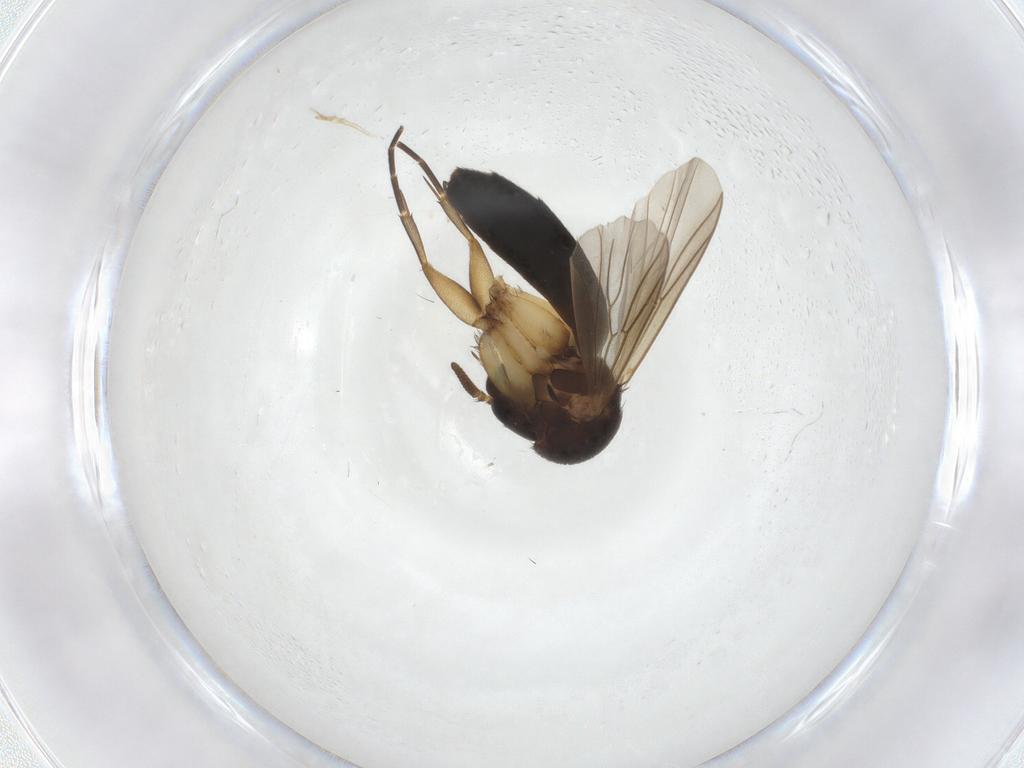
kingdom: Animalia
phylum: Arthropoda
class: Insecta
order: Diptera
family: Mycetophilidae
